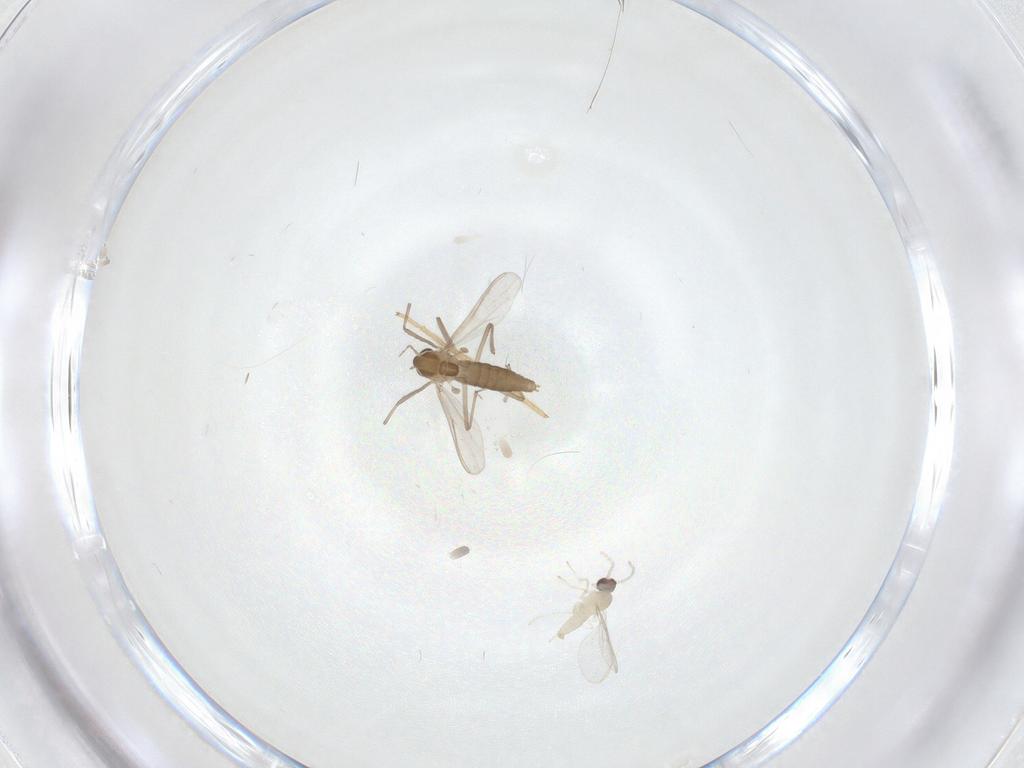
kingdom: Animalia
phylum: Arthropoda
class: Insecta
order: Diptera
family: Chironomidae
